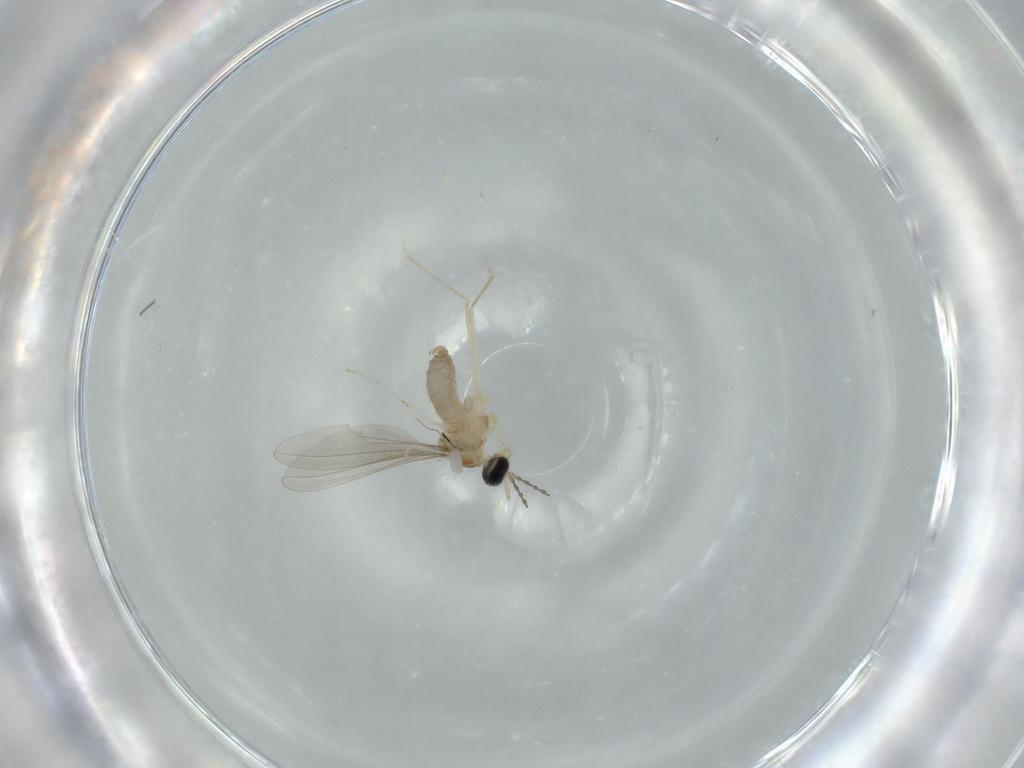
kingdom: Animalia
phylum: Arthropoda
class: Insecta
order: Diptera
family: Cecidomyiidae
